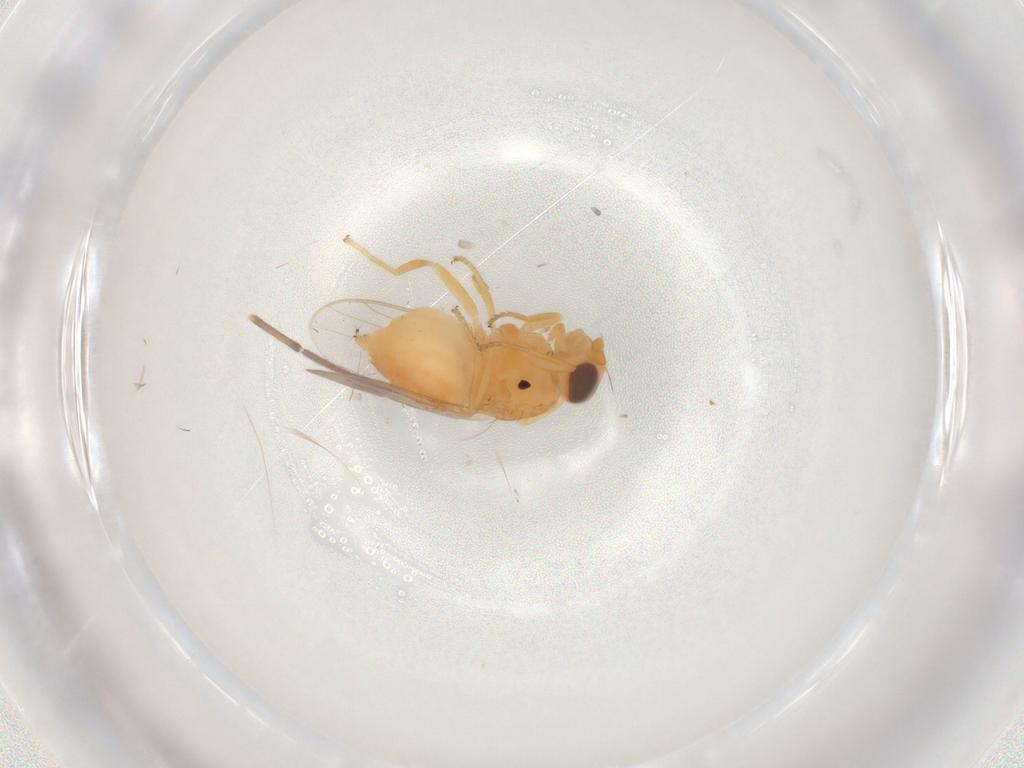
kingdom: Animalia
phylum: Arthropoda
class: Insecta
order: Diptera
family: Chloropidae
